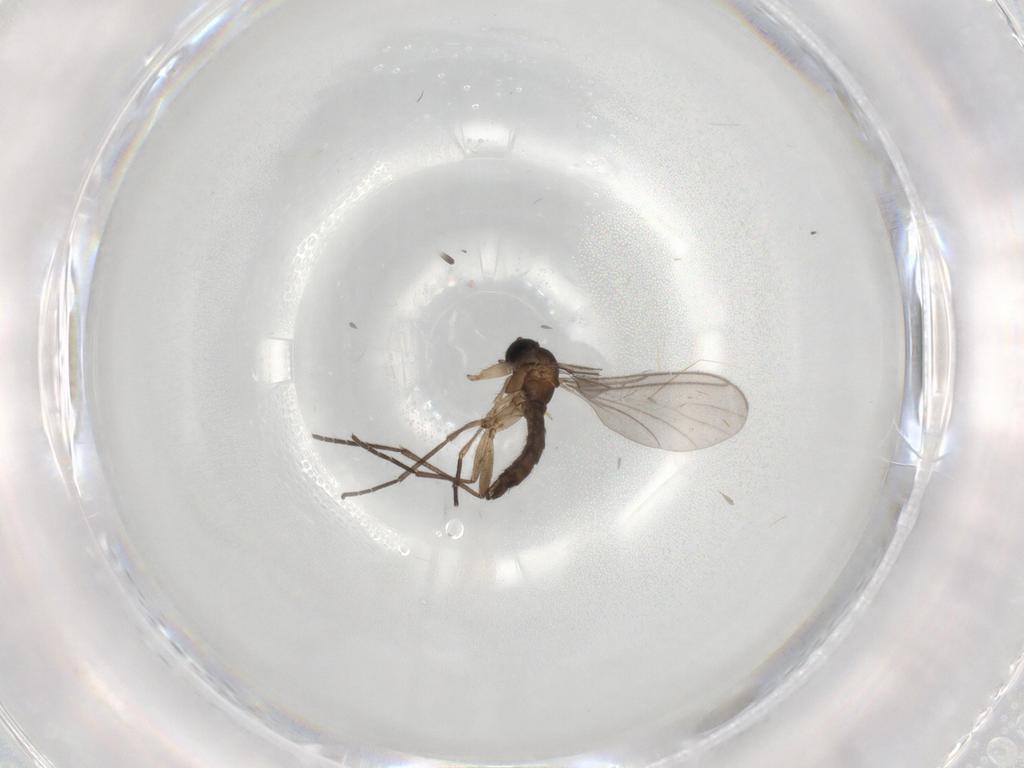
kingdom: Animalia
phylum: Arthropoda
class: Insecta
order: Diptera
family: Sciaridae
